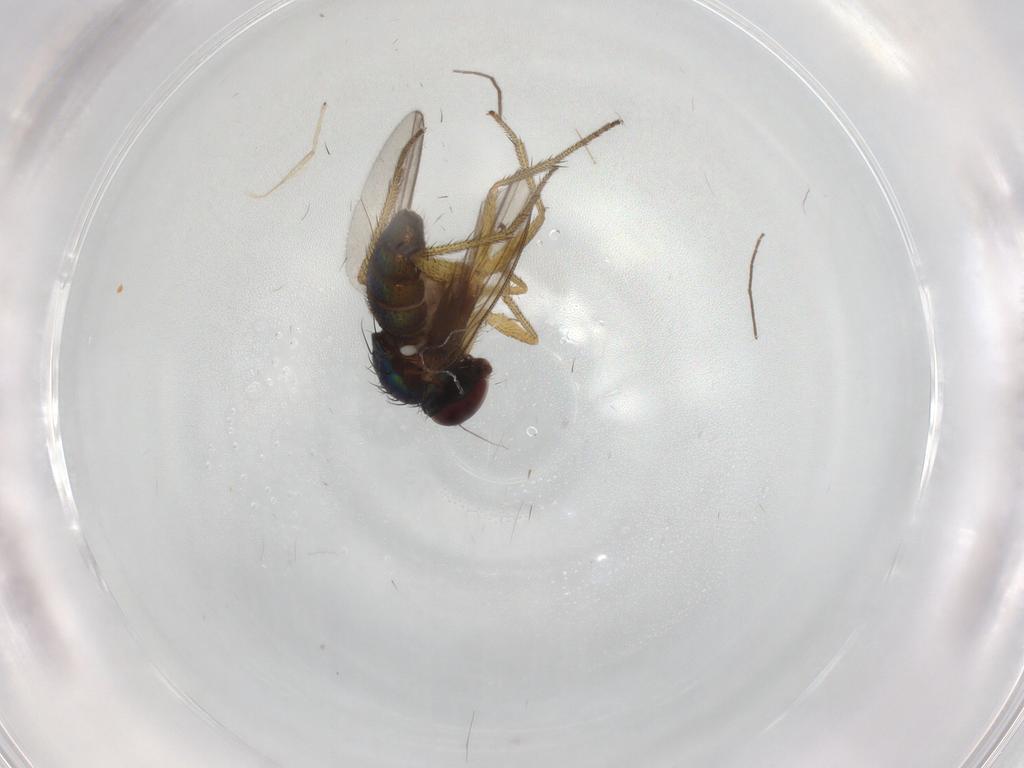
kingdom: Animalia
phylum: Arthropoda
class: Insecta
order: Diptera
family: Chironomidae
